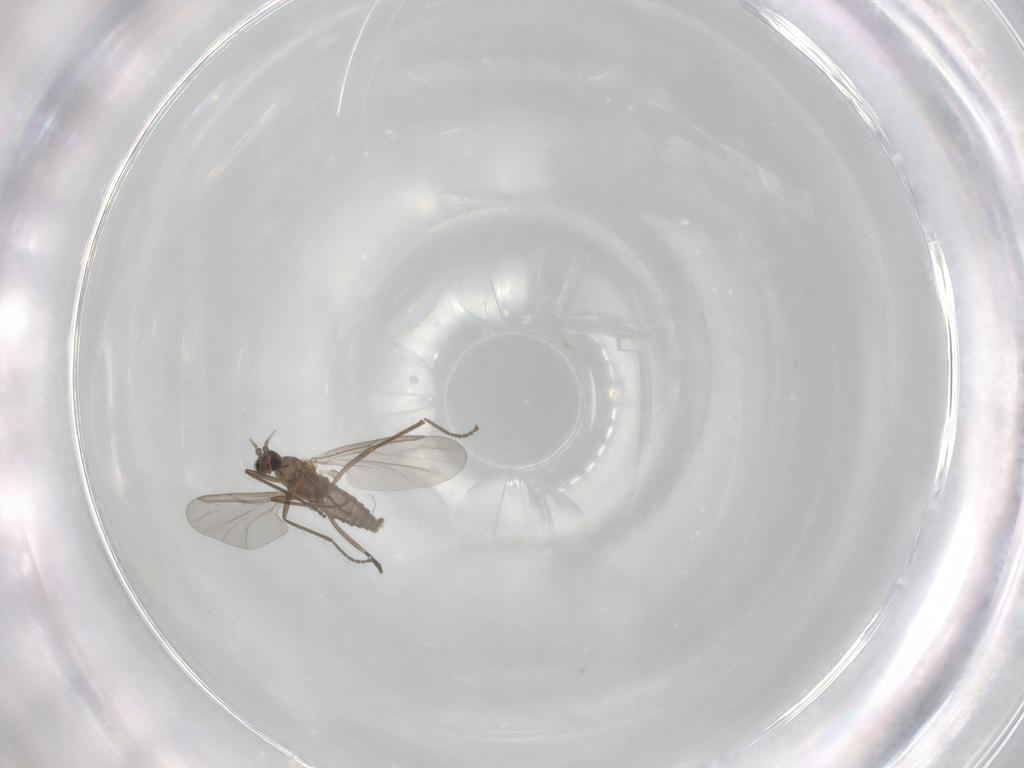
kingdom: Animalia
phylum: Arthropoda
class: Insecta
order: Diptera
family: Cecidomyiidae
